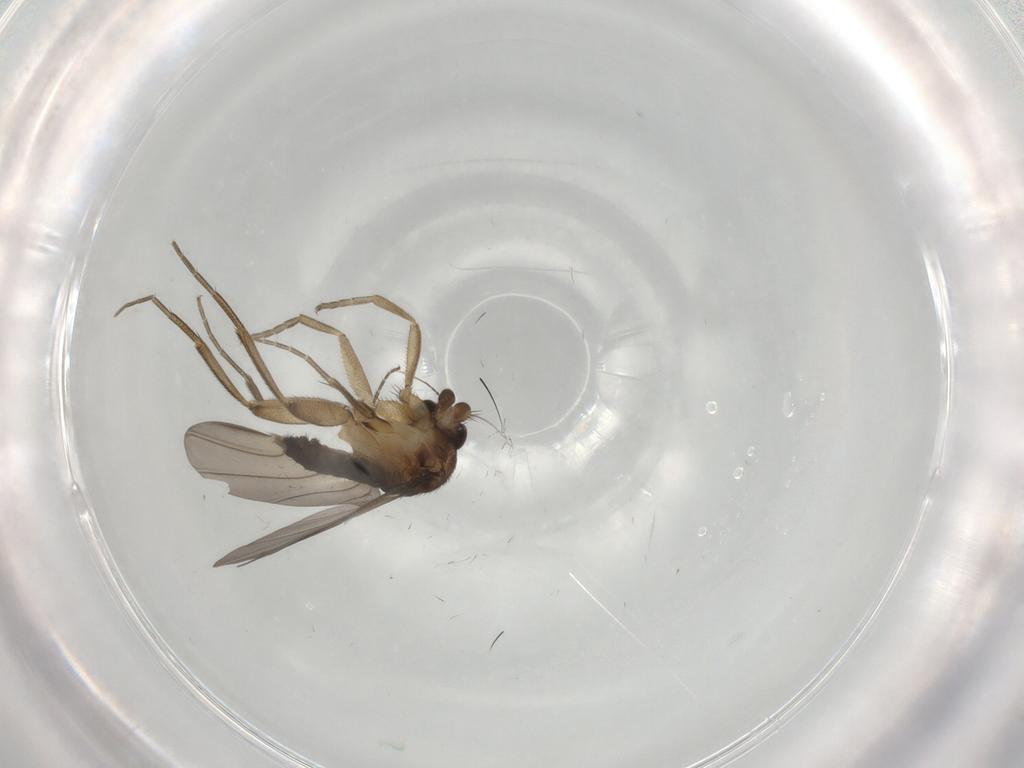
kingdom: Animalia
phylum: Arthropoda
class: Insecta
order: Diptera
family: Phoridae
